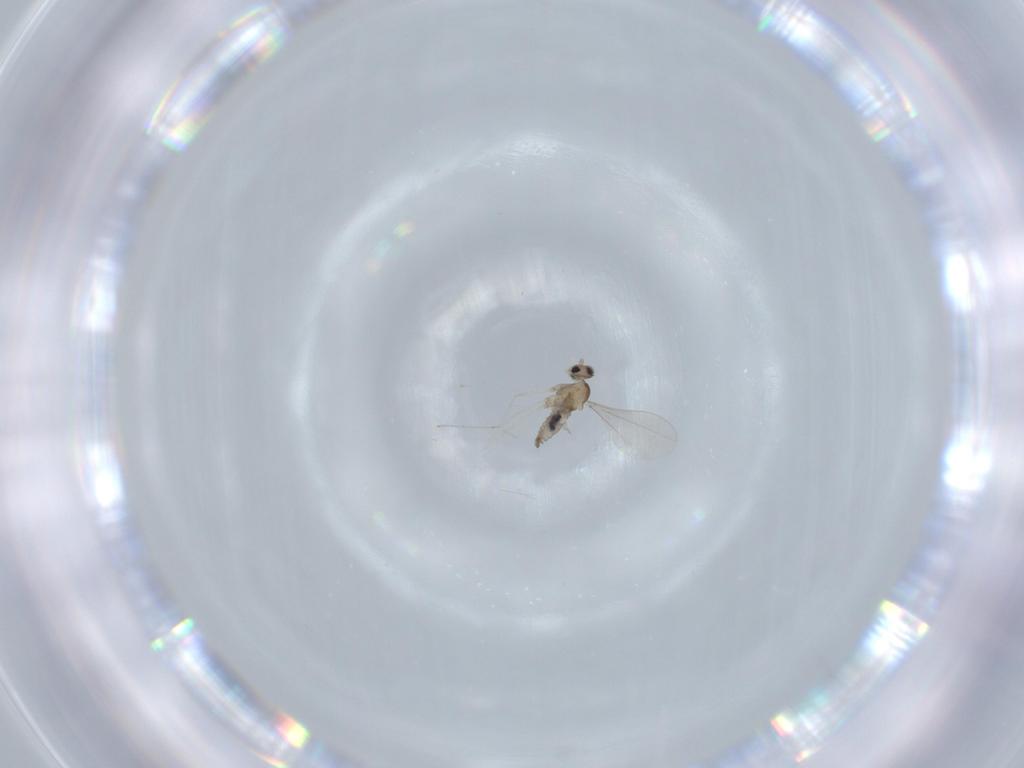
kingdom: Animalia
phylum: Arthropoda
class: Insecta
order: Diptera
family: Cecidomyiidae
